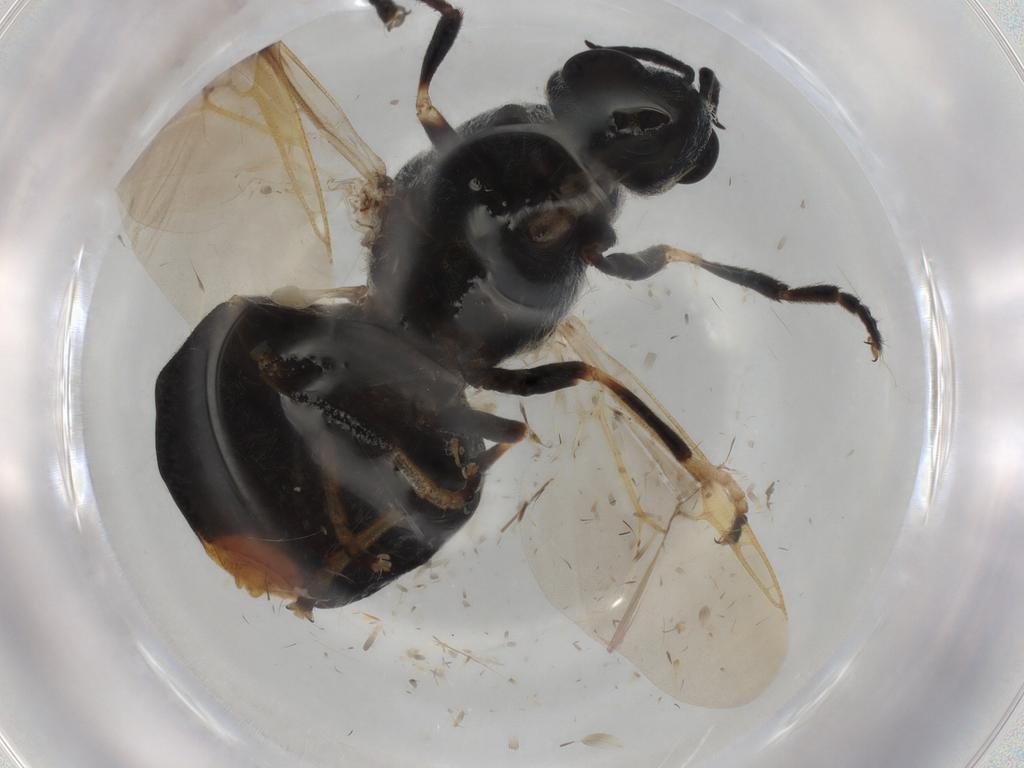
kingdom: Animalia
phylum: Arthropoda
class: Insecta
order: Diptera
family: Stratiomyidae
